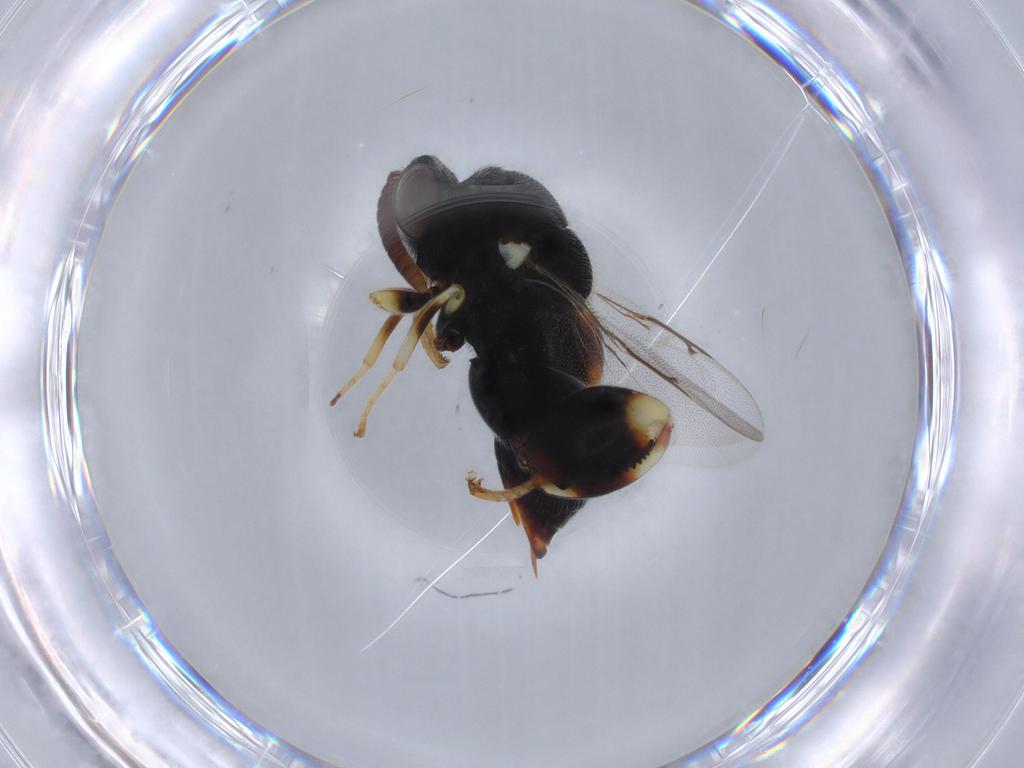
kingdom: Animalia
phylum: Arthropoda
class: Insecta
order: Hymenoptera
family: Chalcididae
